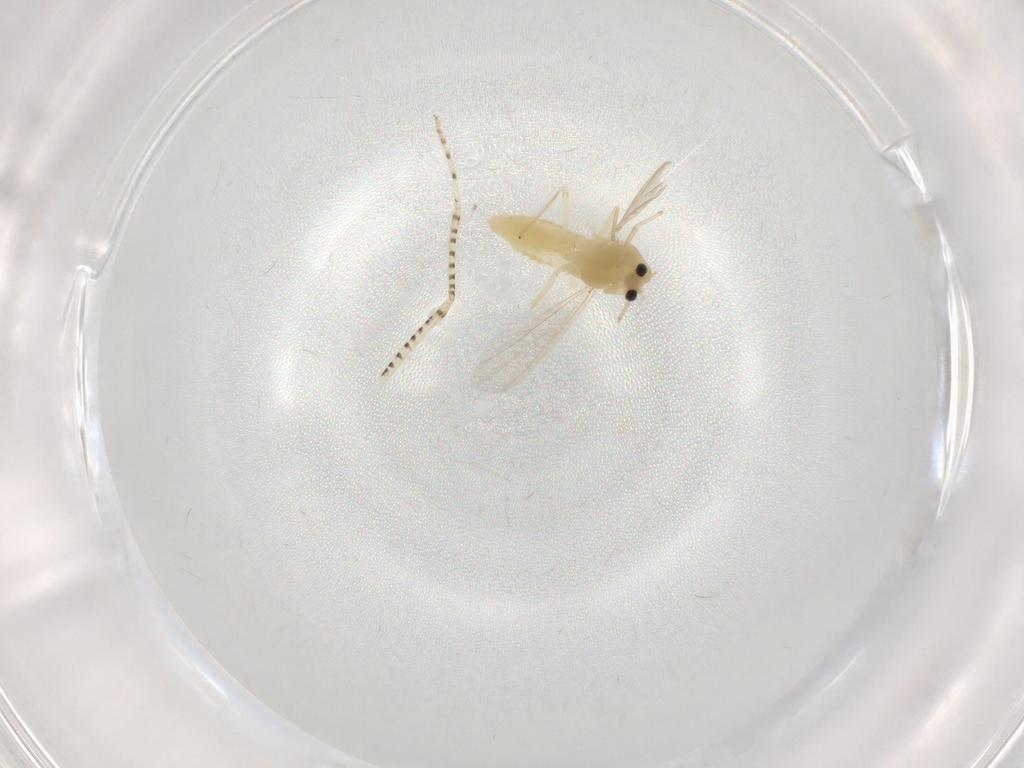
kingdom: Animalia
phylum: Arthropoda
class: Insecta
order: Diptera
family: Chironomidae
